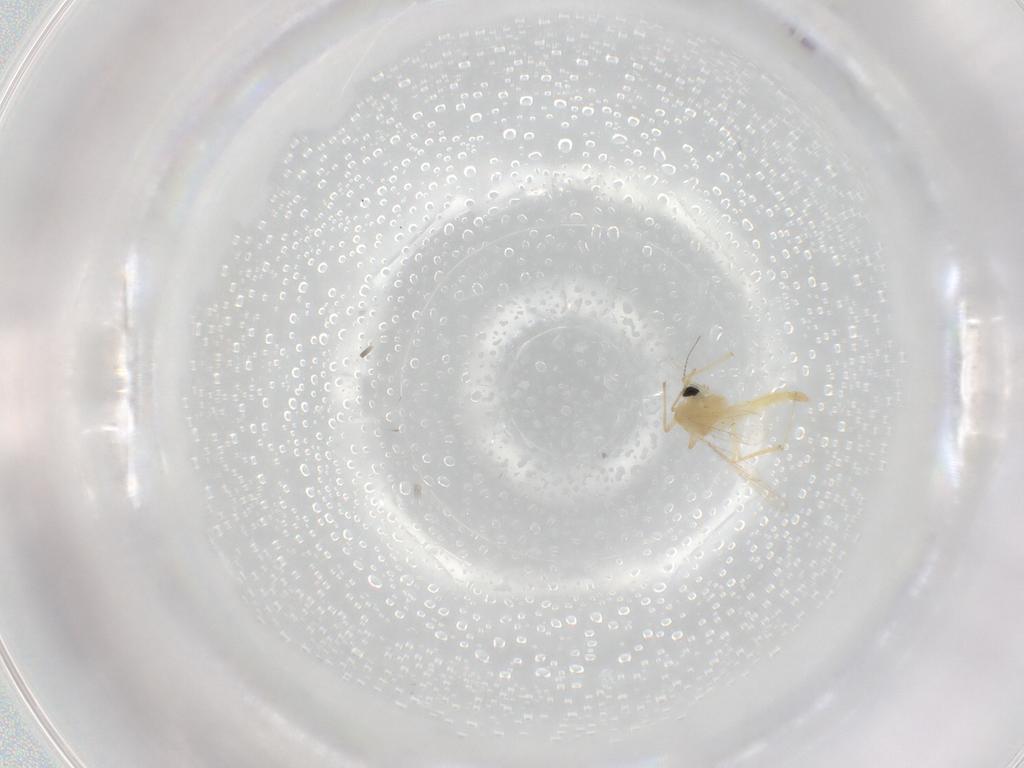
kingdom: Animalia
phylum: Arthropoda
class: Insecta
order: Diptera
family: Chironomidae
